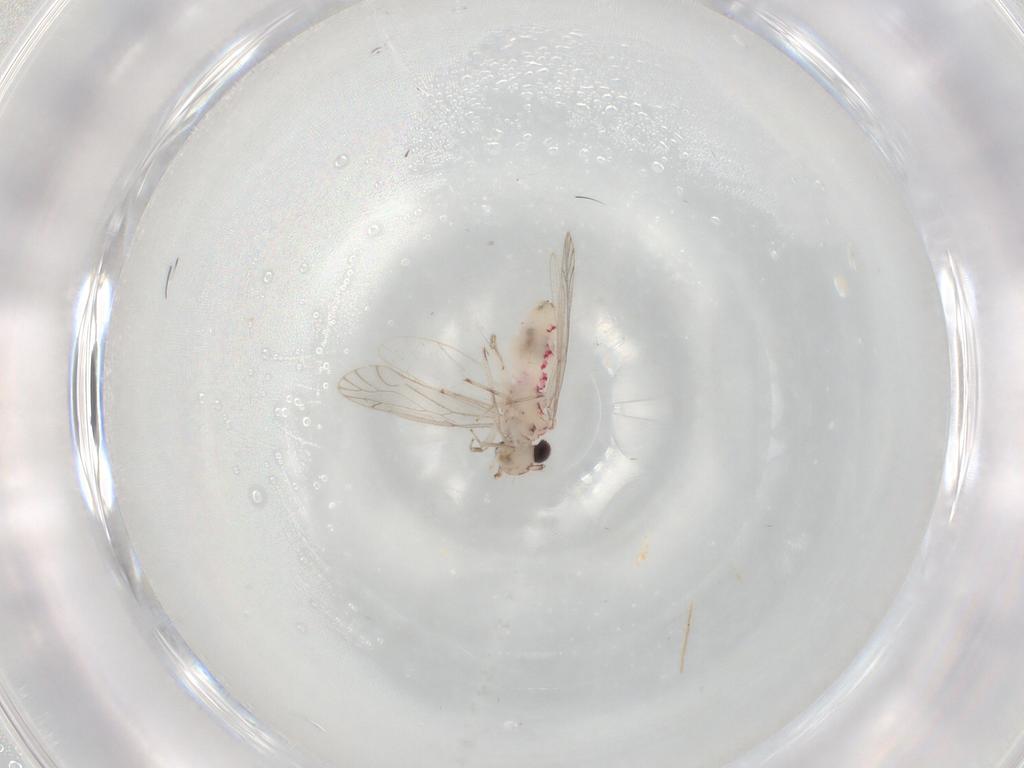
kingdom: Animalia
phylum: Arthropoda
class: Insecta
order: Psocodea
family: Caeciliusidae
